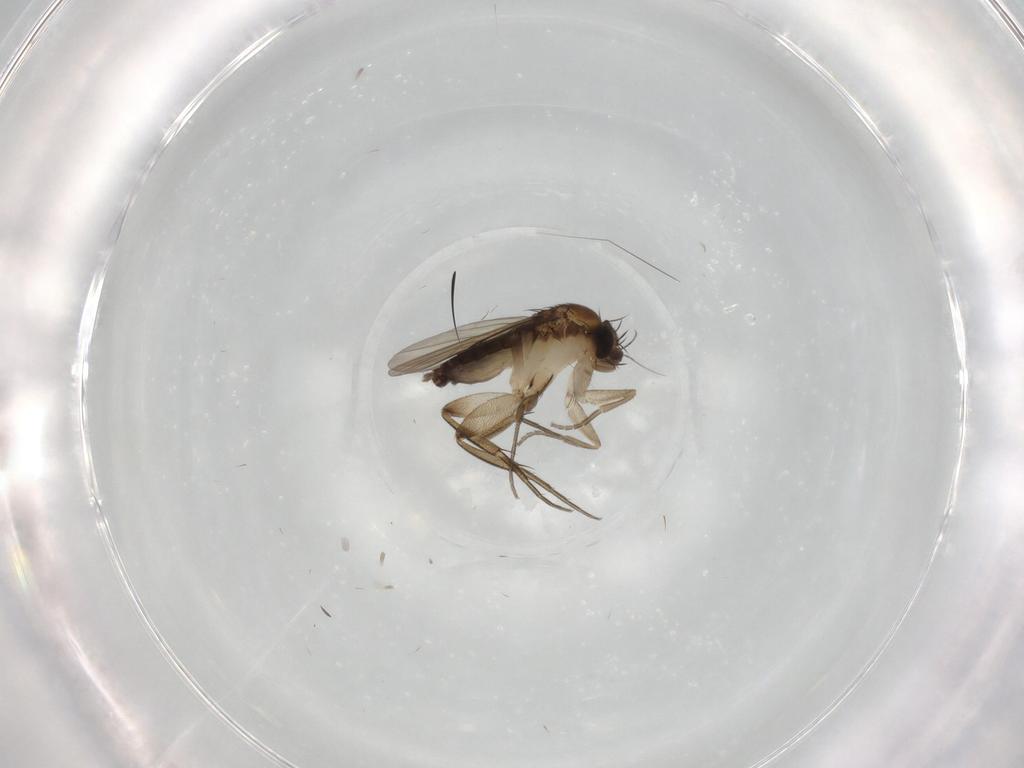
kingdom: Animalia
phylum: Arthropoda
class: Insecta
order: Diptera
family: Phoridae
